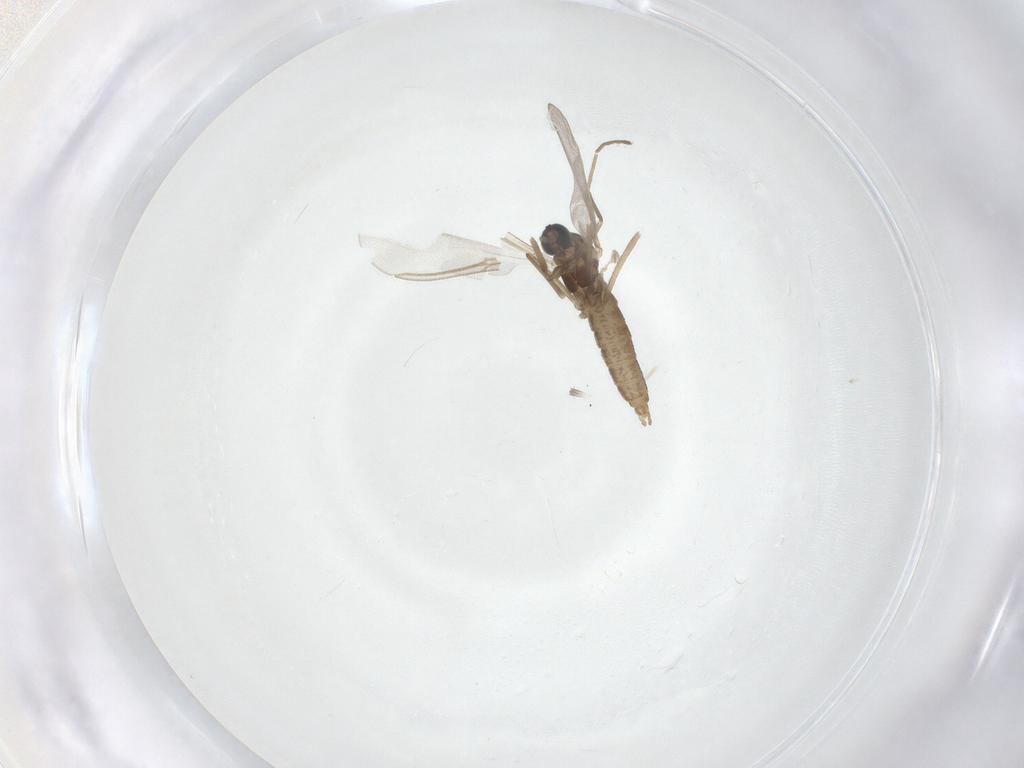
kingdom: Animalia
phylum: Arthropoda
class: Insecta
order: Diptera
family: Cecidomyiidae
